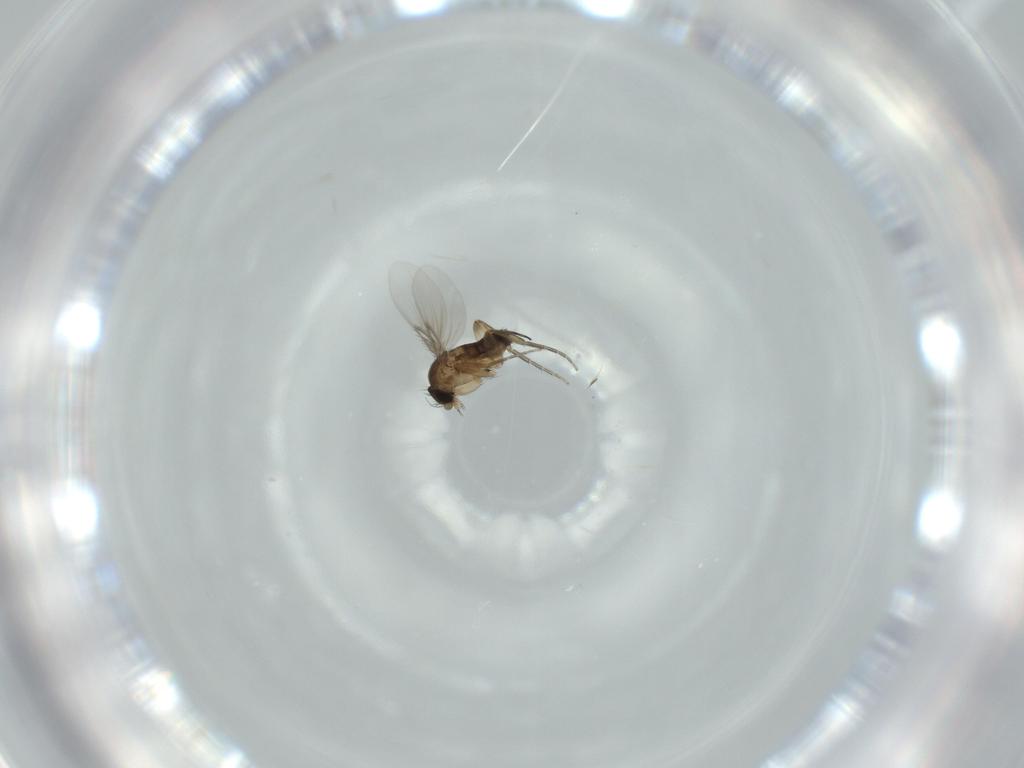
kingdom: Animalia
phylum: Arthropoda
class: Insecta
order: Diptera
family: Phoridae
